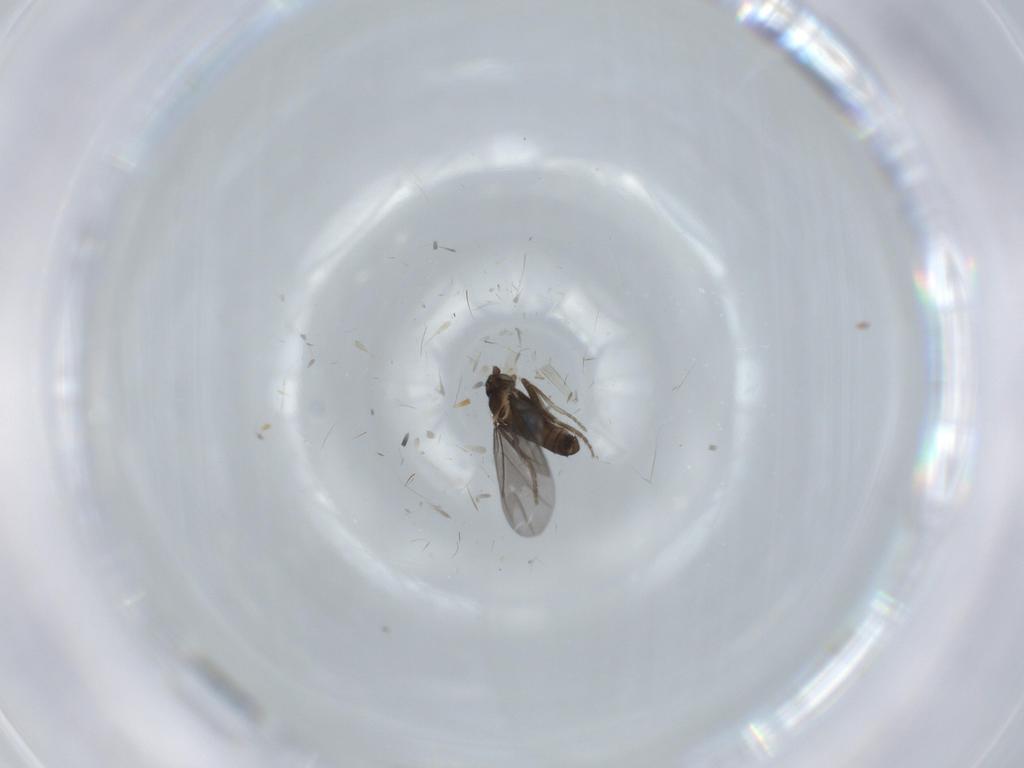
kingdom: Animalia
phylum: Arthropoda
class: Insecta
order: Diptera
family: Phoridae
